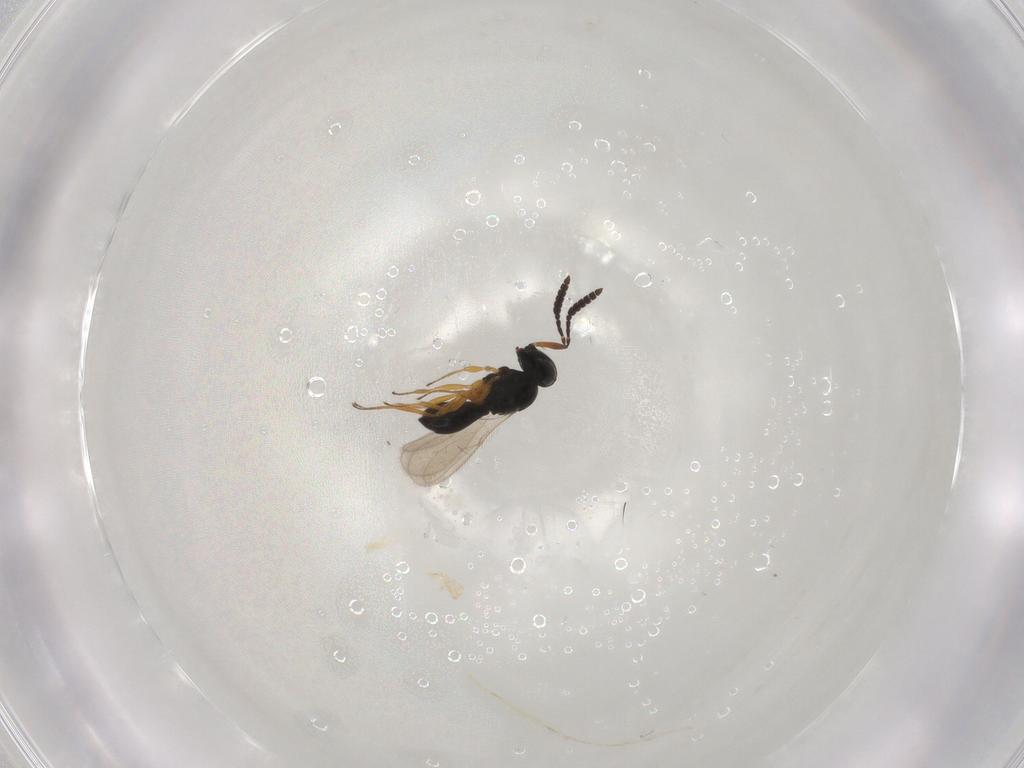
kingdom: Animalia
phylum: Arthropoda
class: Insecta
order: Hymenoptera
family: Scelionidae
